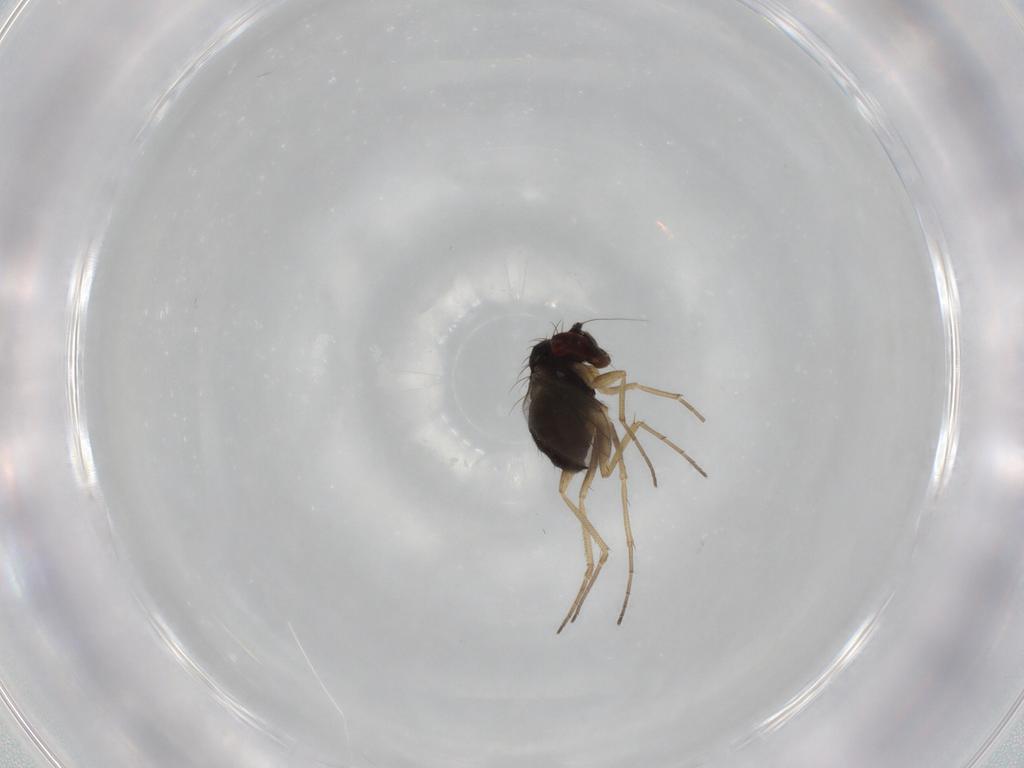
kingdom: Animalia
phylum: Arthropoda
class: Insecta
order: Diptera
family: Dolichopodidae
